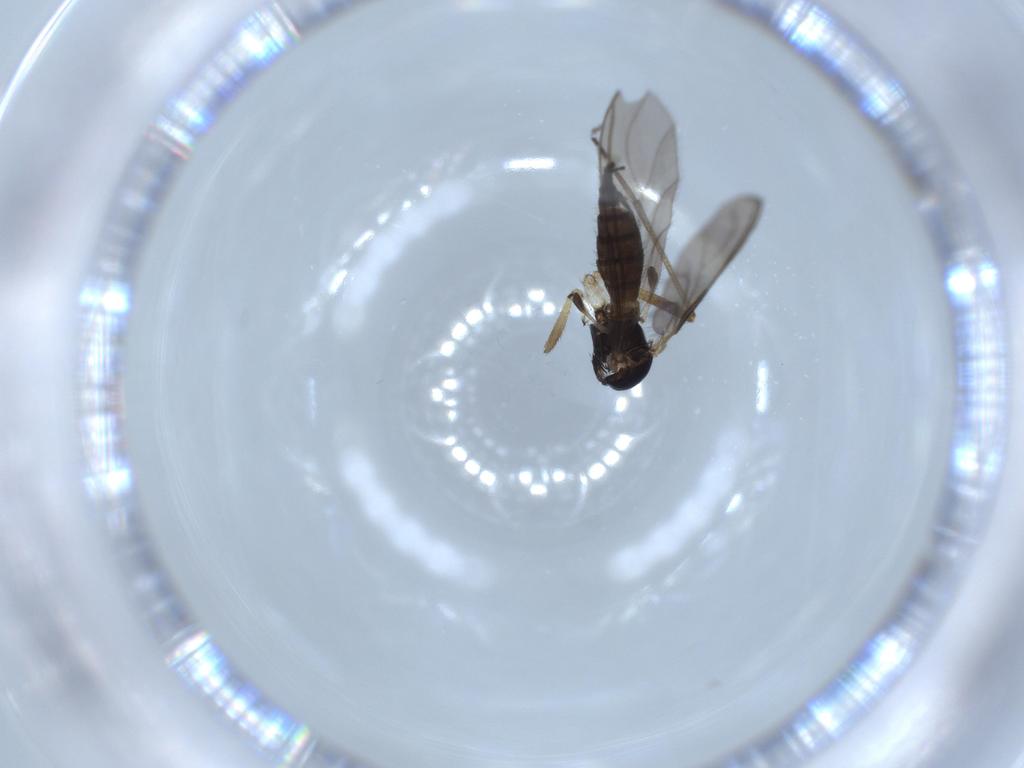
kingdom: Animalia
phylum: Arthropoda
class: Insecta
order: Diptera
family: Sciaridae
